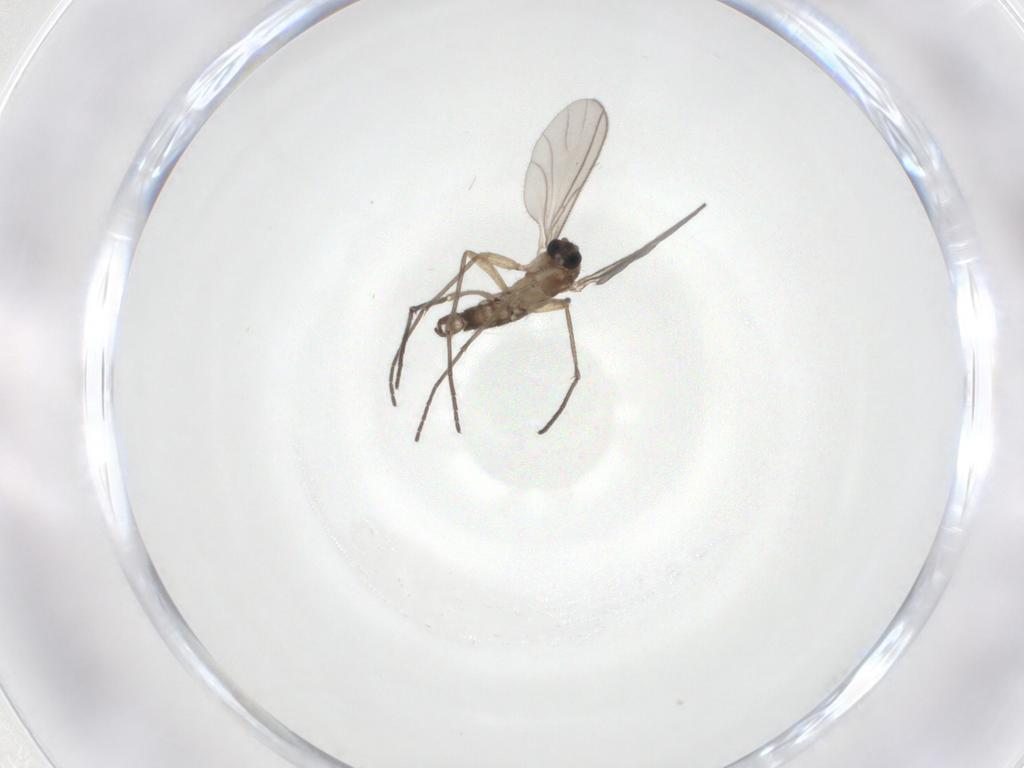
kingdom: Animalia
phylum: Arthropoda
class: Insecta
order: Diptera
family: Sciaridae
